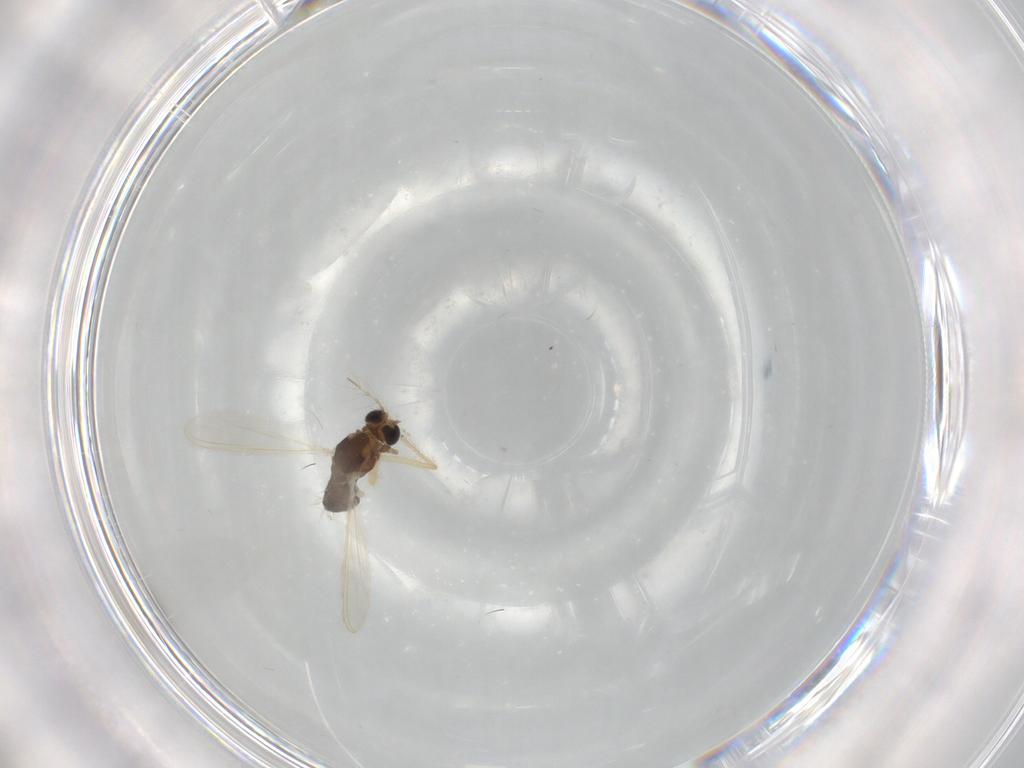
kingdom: Animalia
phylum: Arthropoda
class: Insecta
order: Diptera
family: Chironomidae
